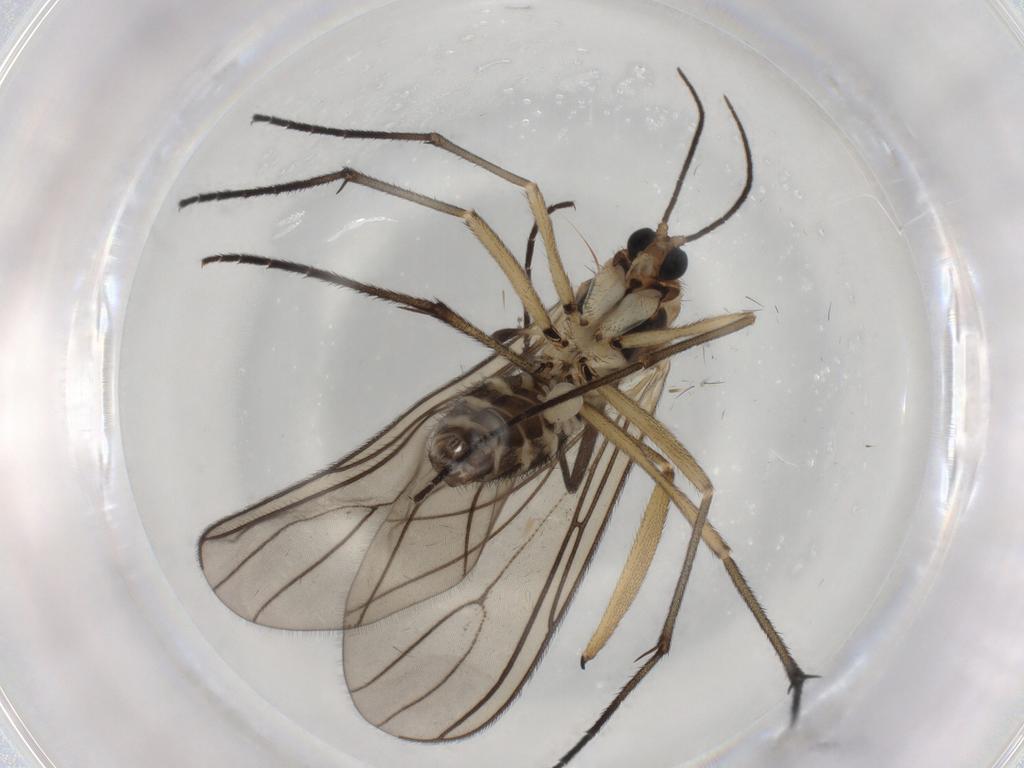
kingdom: Animalia
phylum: Arthropoda
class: Insecta
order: Diptera
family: Sciaridae
